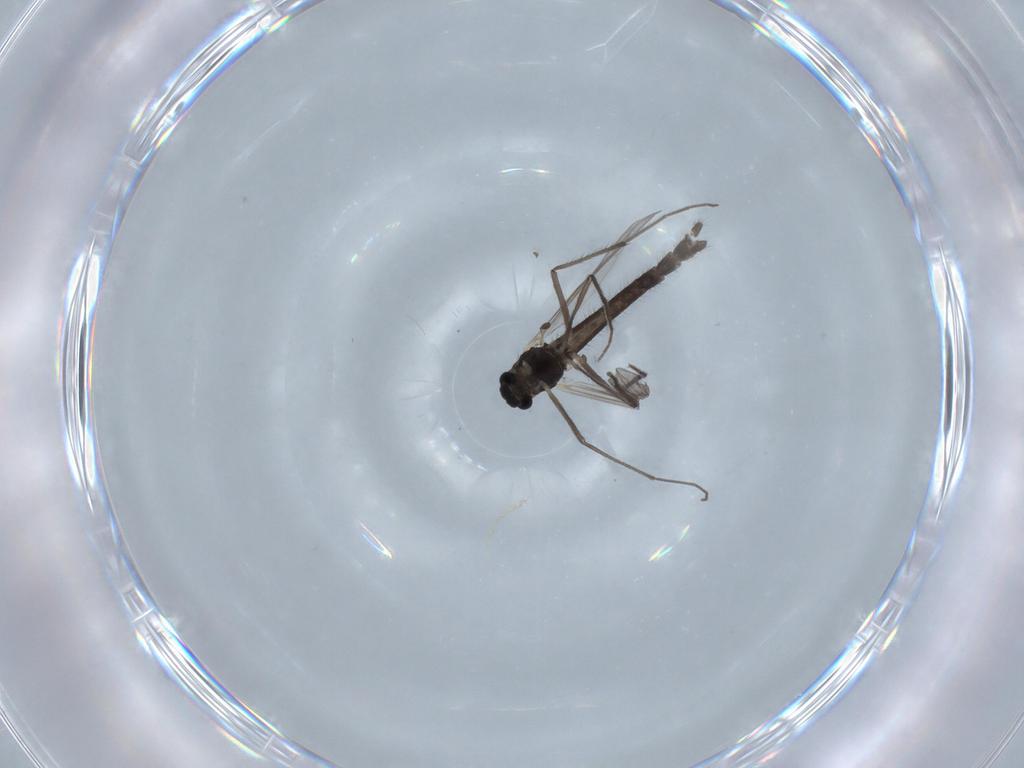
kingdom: Animalia
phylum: Arthropoda
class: Insecta
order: Diptera
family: Chironomidae
